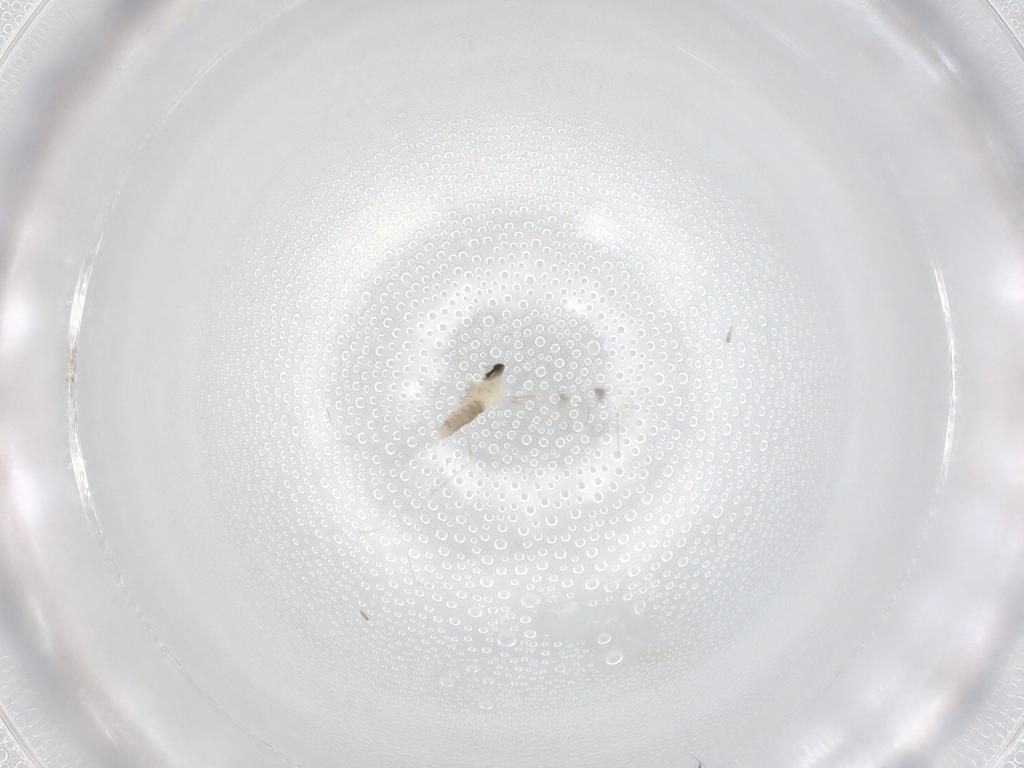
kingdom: Animalia
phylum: Arthropoda
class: Insecta
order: Diptera
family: Cecidomyiidae
